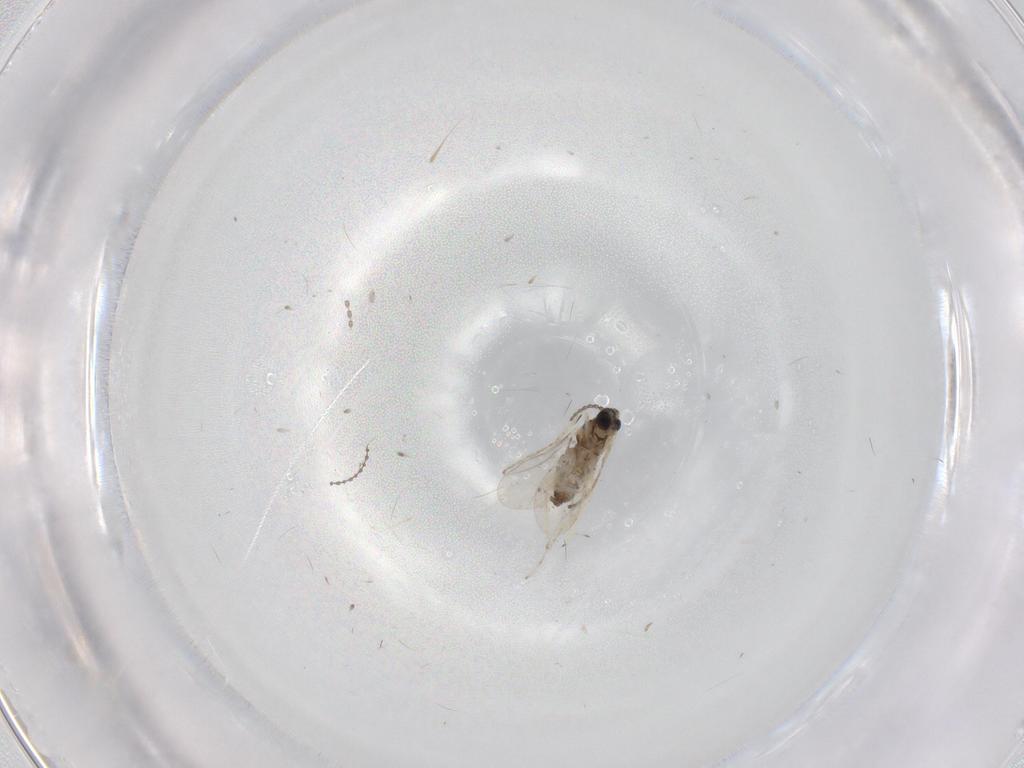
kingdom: Animalia
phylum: Arthropoda
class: Insecta
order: Diptera
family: Cecidomyiidae
